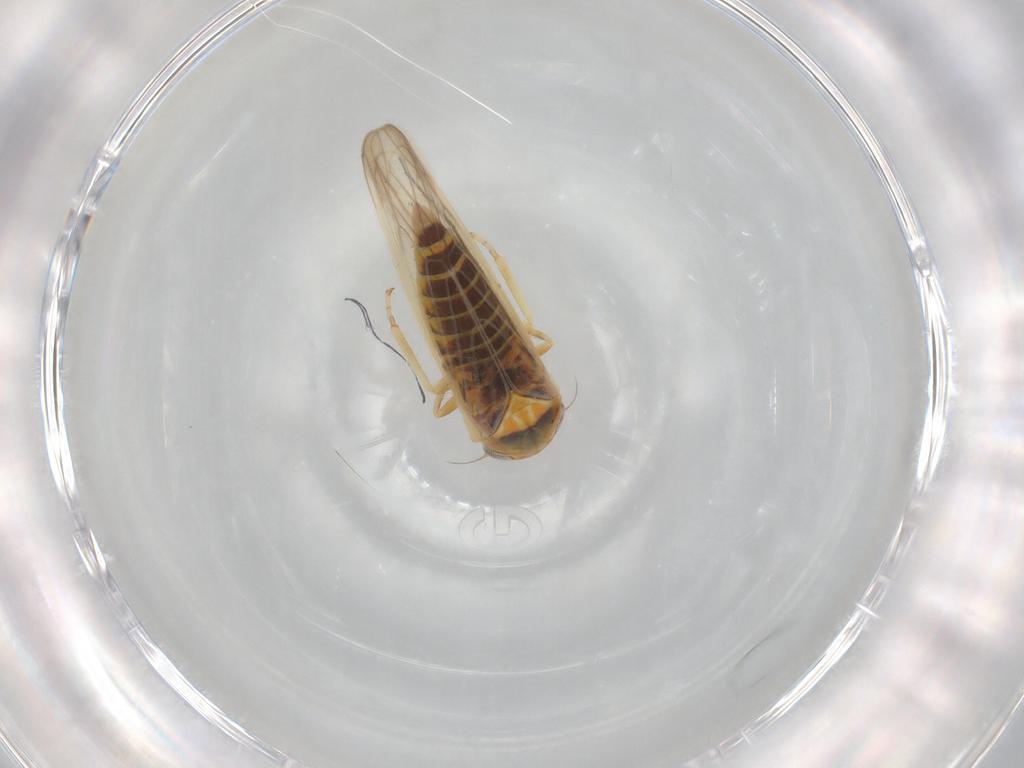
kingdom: Animalia
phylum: Arthropoda
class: Insecta
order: Hemiptera
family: Cicadellidae
